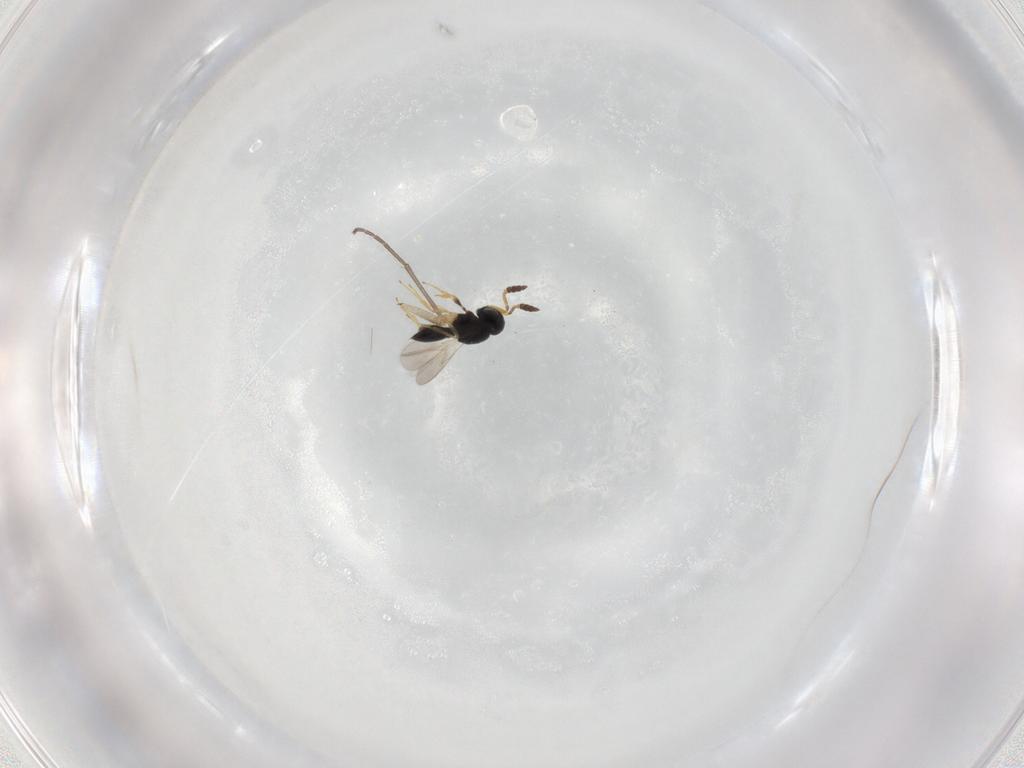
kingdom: Animalia
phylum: Arthropoda
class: Insecta
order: Hymenoptera
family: Scelionidae
